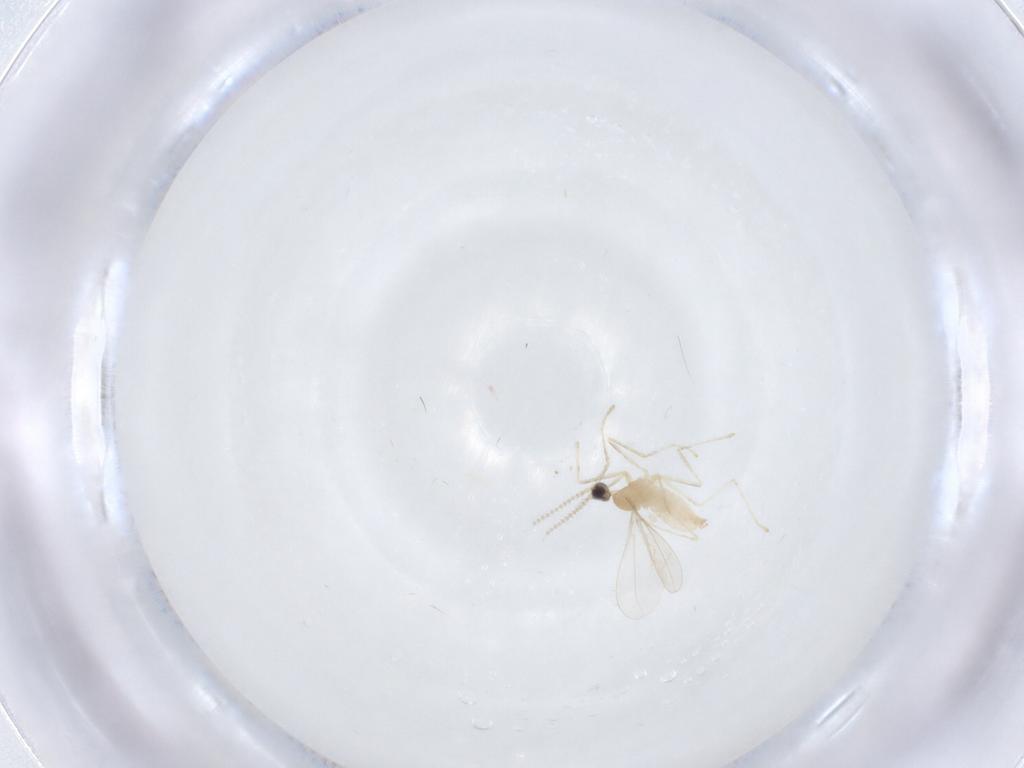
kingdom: Animalia
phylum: Arthropoda
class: Insecta
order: Diptera
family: Cecidomyiidae
